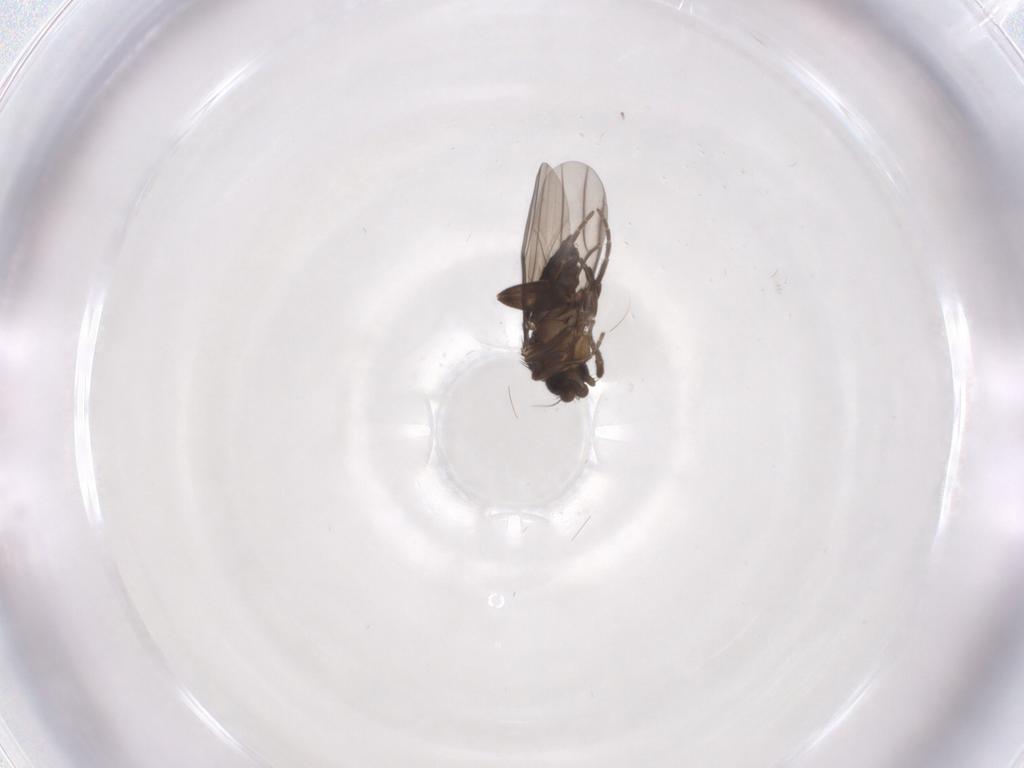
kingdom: Animalia
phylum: Arthropoda
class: Insecta
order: Diptera
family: Phoridae
